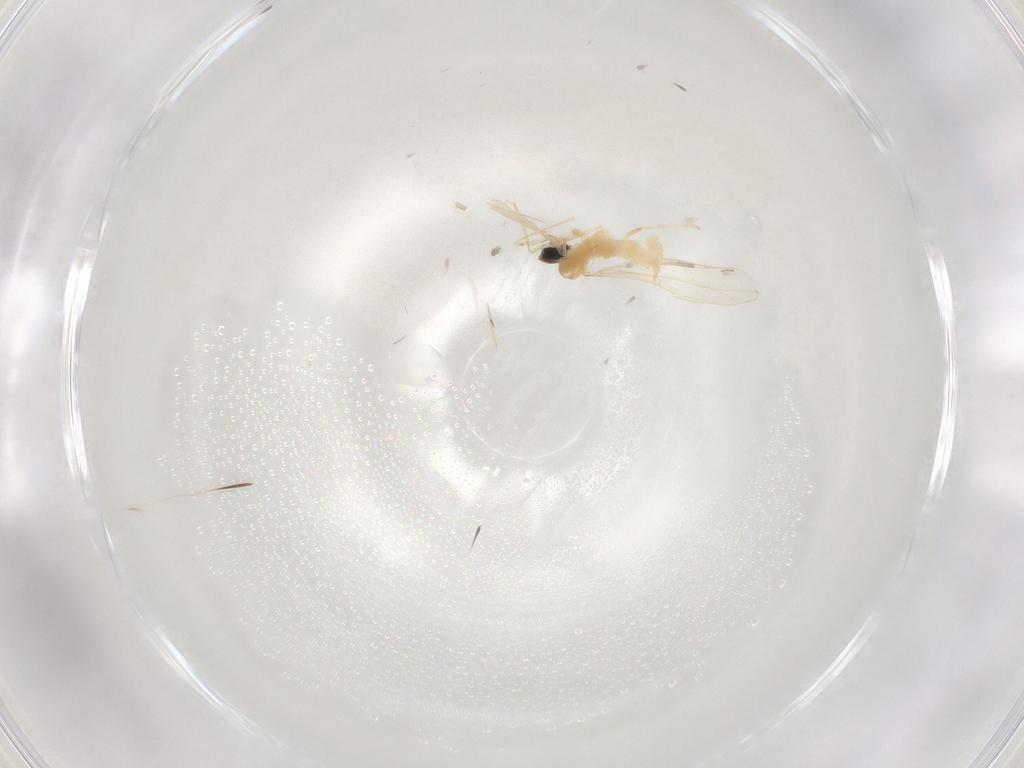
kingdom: Animalia
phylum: Arthropoda
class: Insecta
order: Diptera
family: Cecidomyiidae
